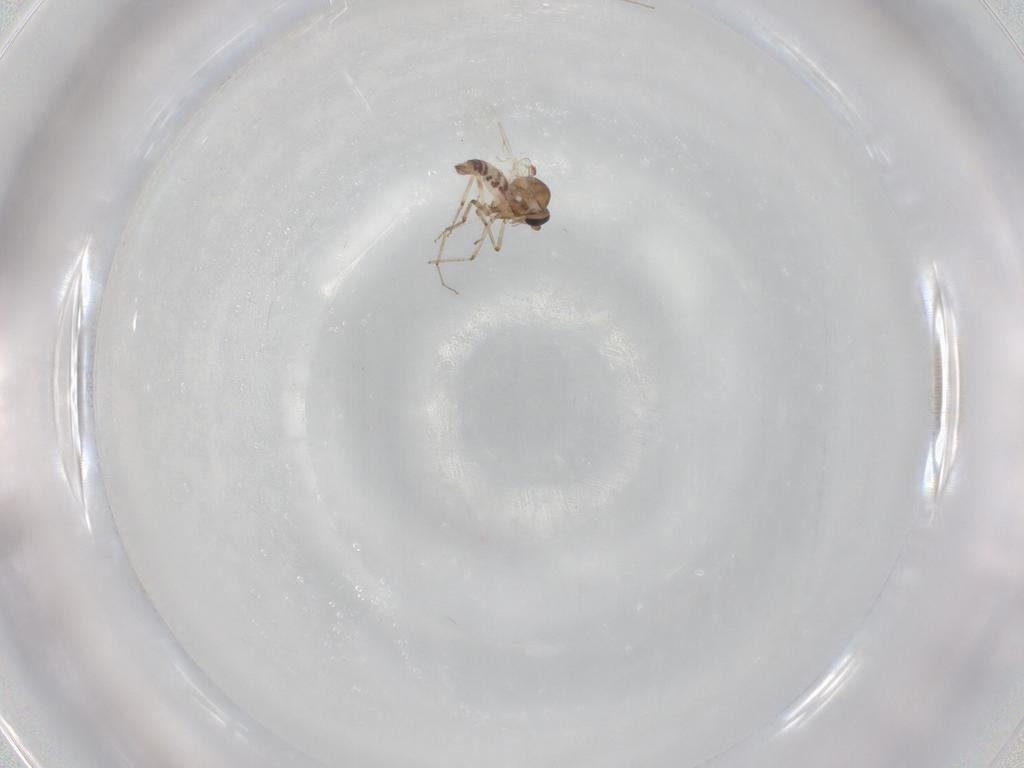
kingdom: Animalia
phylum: Arthropoda
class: Insecta
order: Diptera
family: Ceratopogonidae
